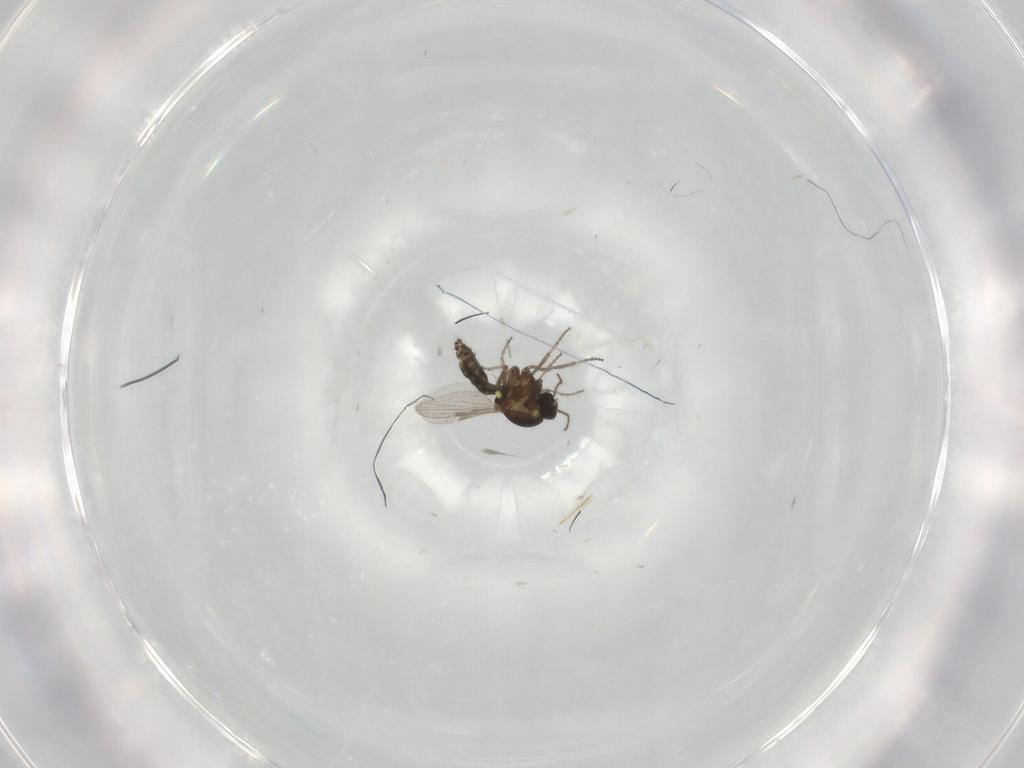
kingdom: Animalia
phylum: Arthropoda
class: Insecta
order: Diptera
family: Ceratopogonidae
